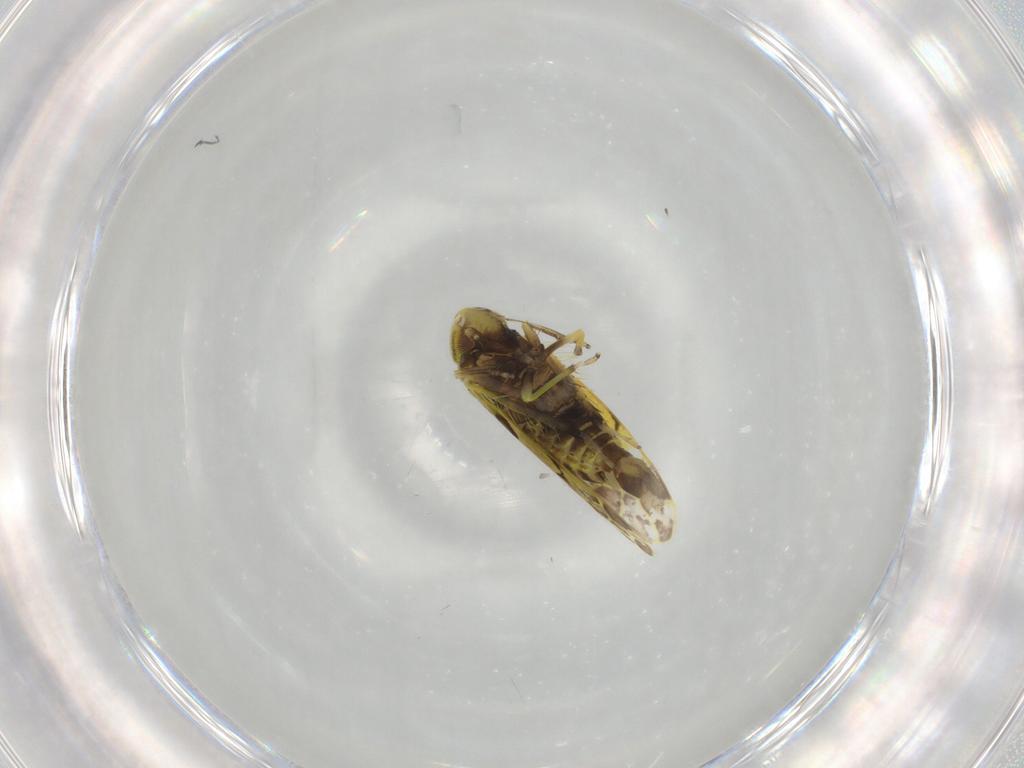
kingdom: Animalia
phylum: Arthropoda
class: Insecta
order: Hemiptera
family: Cicadellidae
